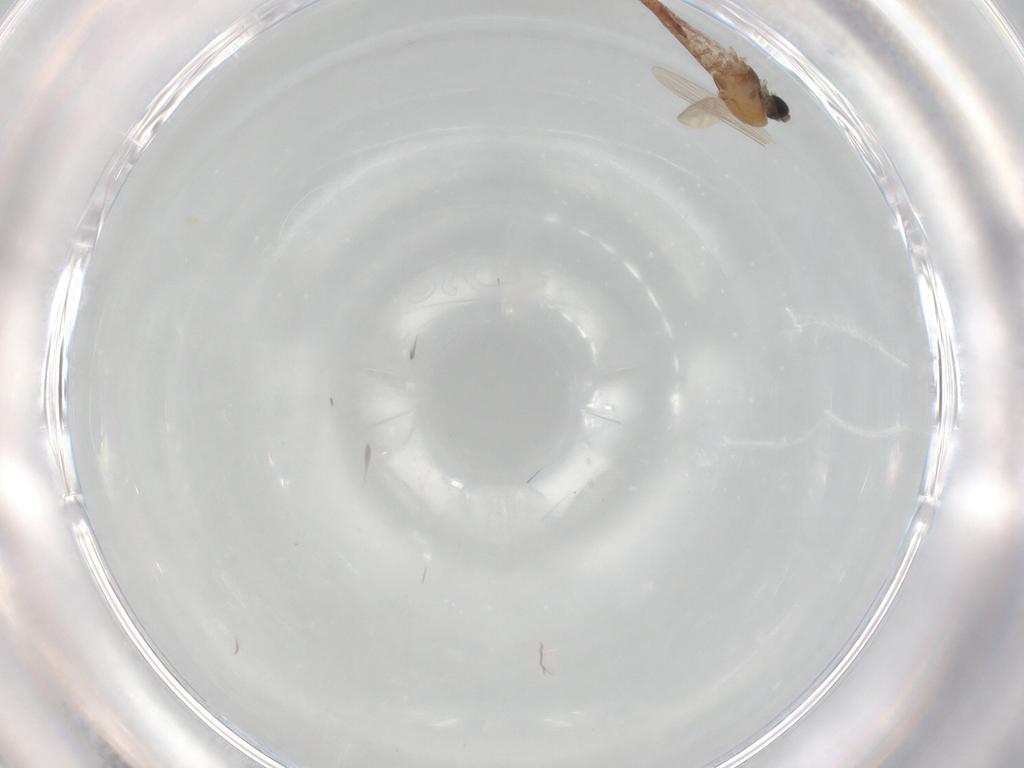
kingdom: Animalia
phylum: Arthropoda
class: Insecta
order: Diptera
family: Chironomidae
